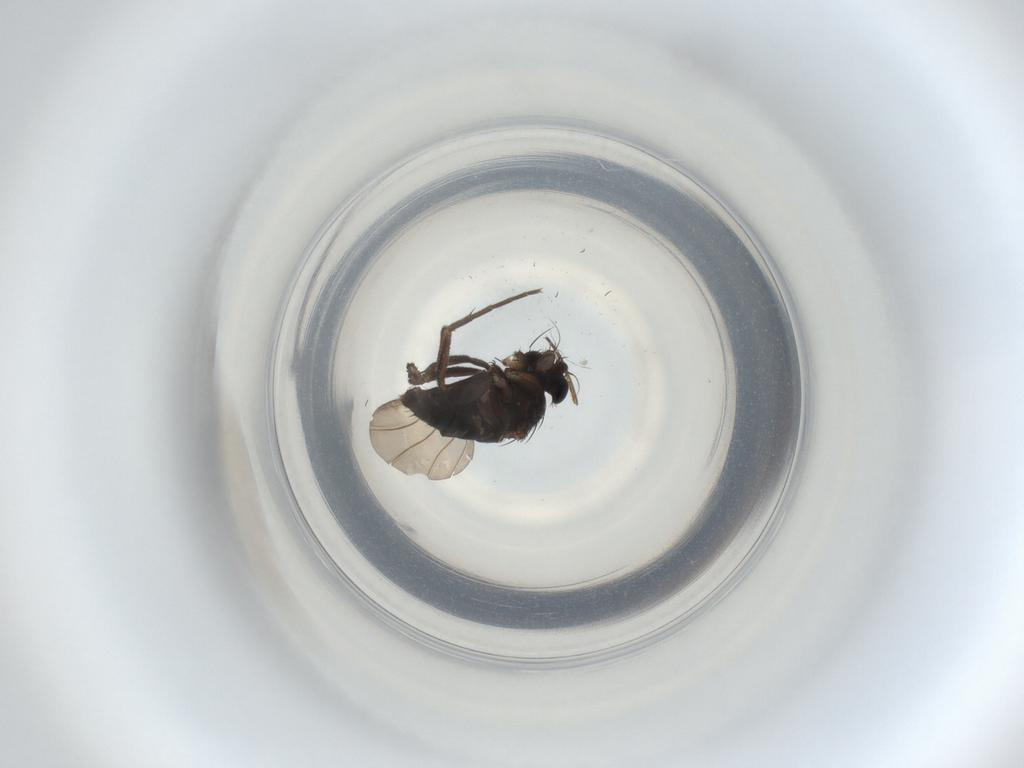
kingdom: Animalia
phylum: Arthropoda
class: Insecta
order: Diptera
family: Phoridae
